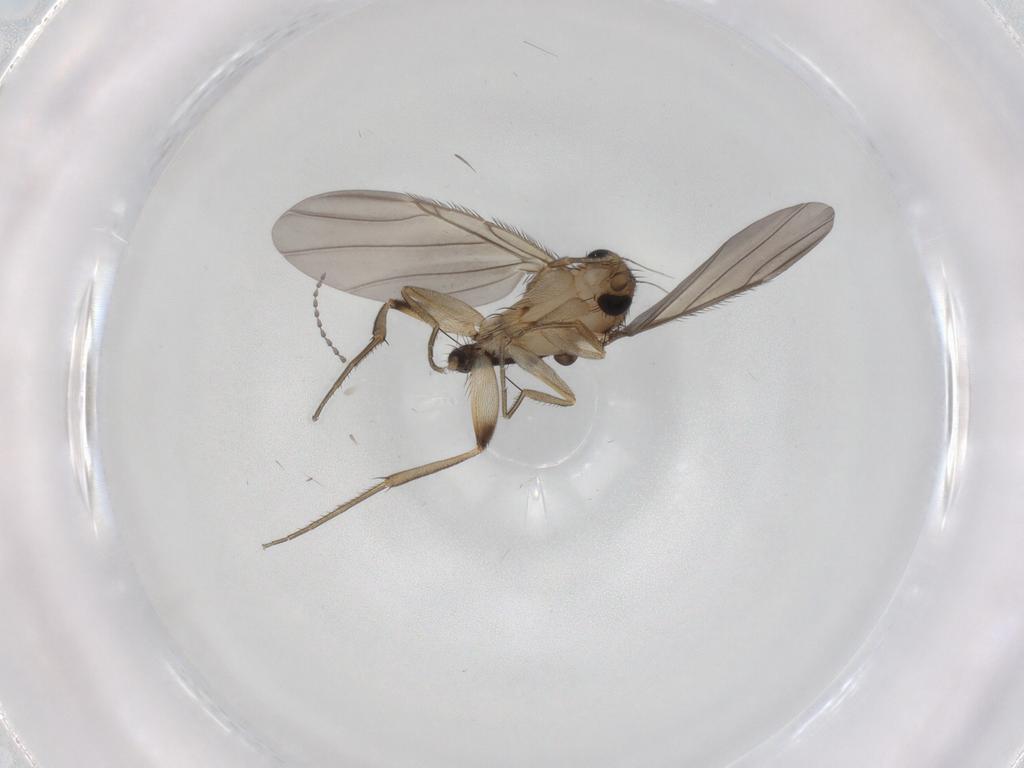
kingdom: Animalia
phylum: Arthropoda
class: Insecta
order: Diptera
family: Phoridae
